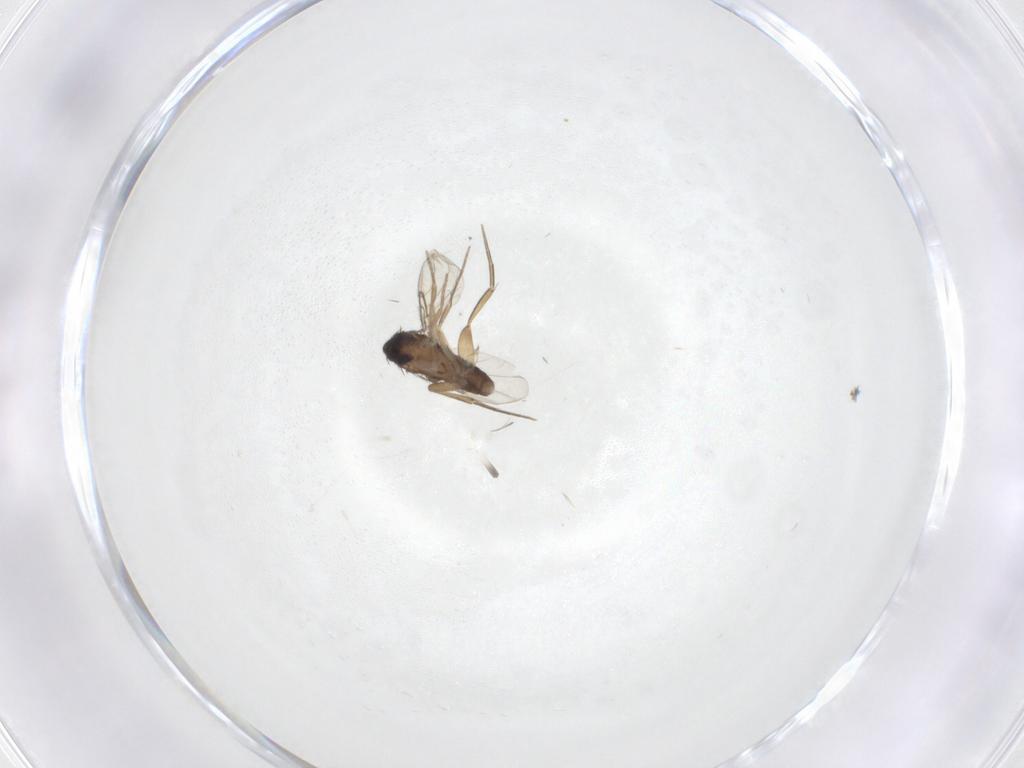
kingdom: Animalia
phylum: Arthropoda
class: Insecta
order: Diptera
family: Phoridae
